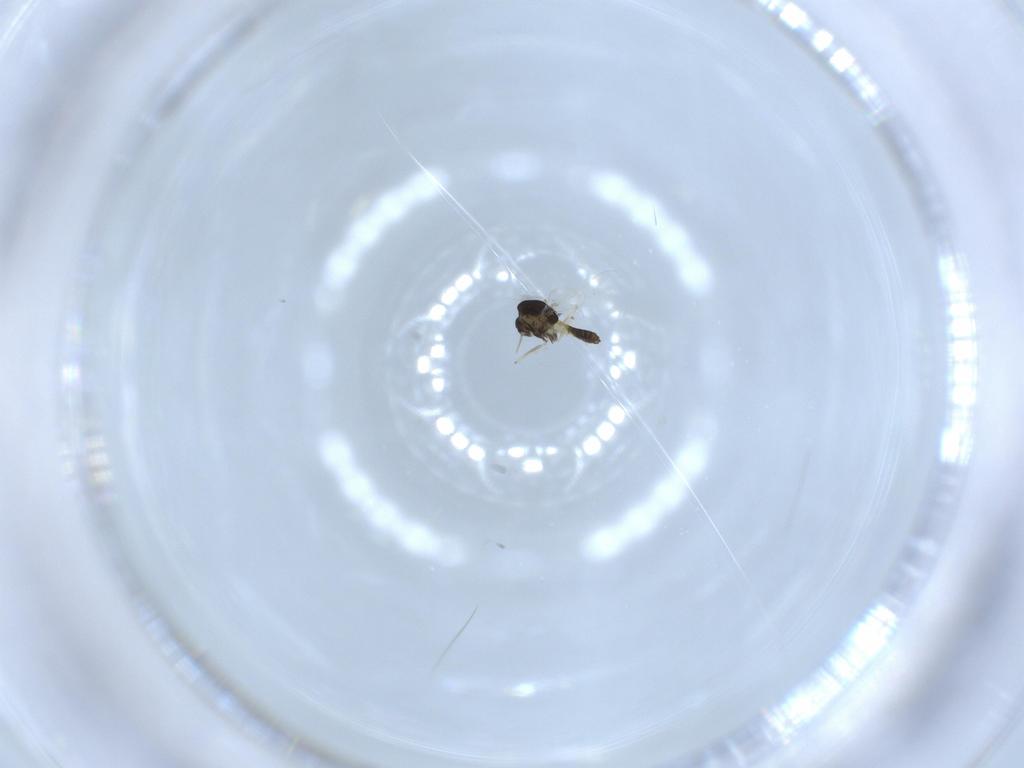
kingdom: Animalia
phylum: Arthropoda
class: Insecta
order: Diptera
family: Chironomidae
